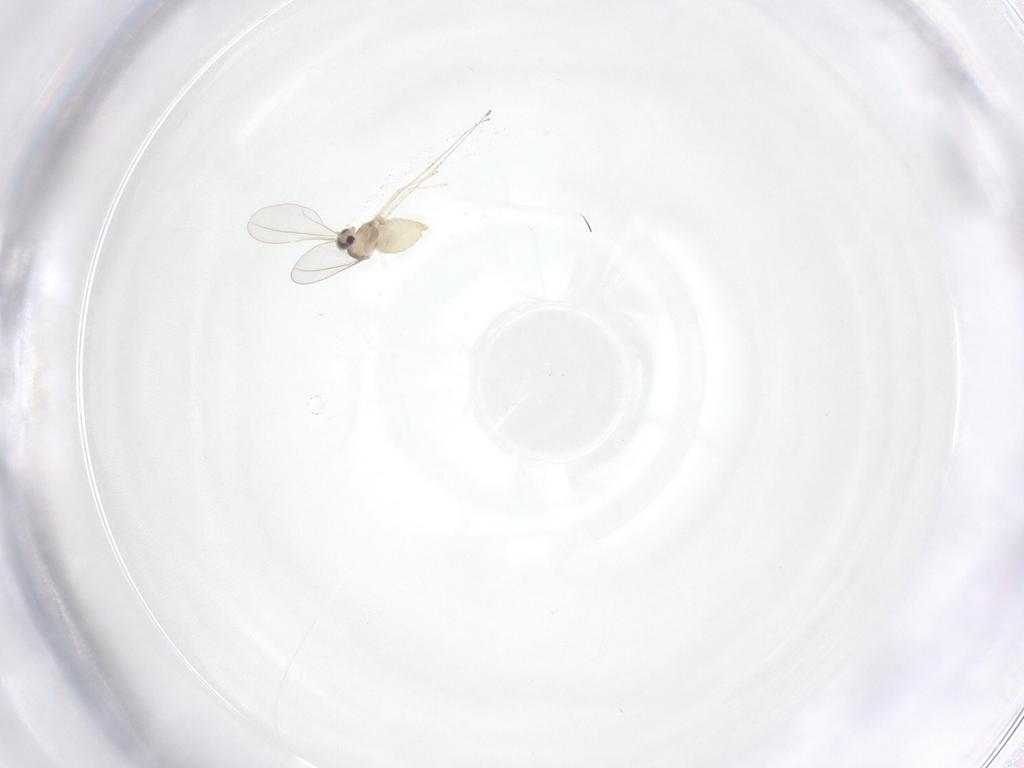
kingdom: Animalia
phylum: Arthropoda
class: Insecta
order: Diptera
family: Cecidomyiidae
